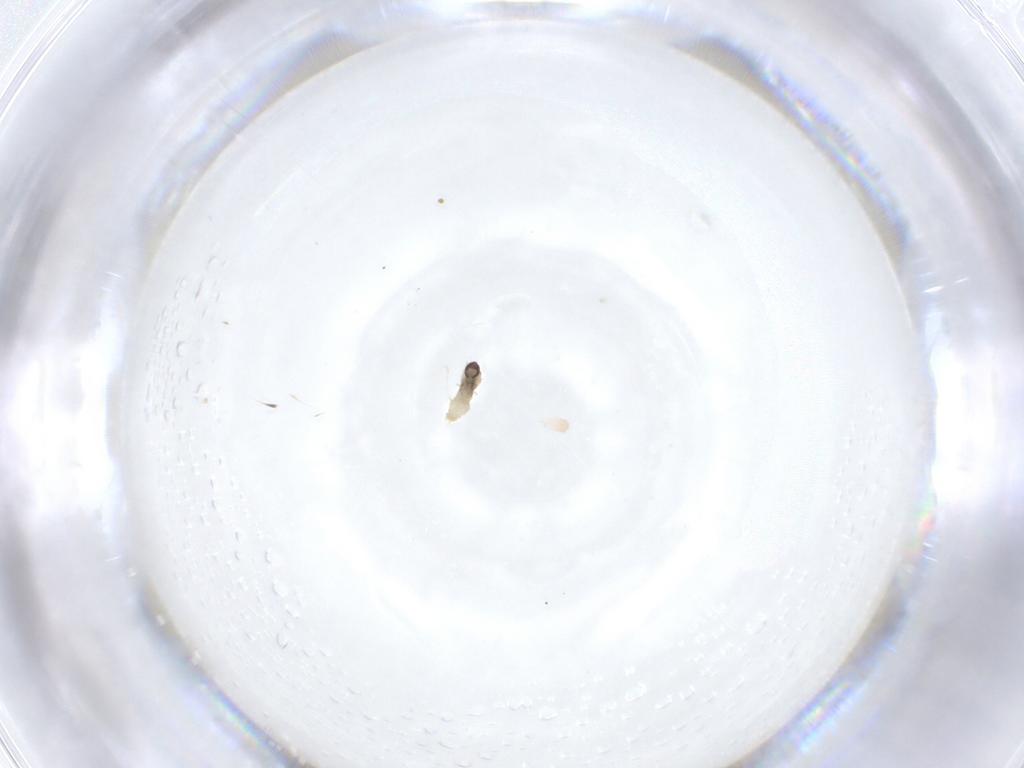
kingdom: Animalia
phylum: Arthropoda
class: Insecta
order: Diptera
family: Cecidomyiidae
